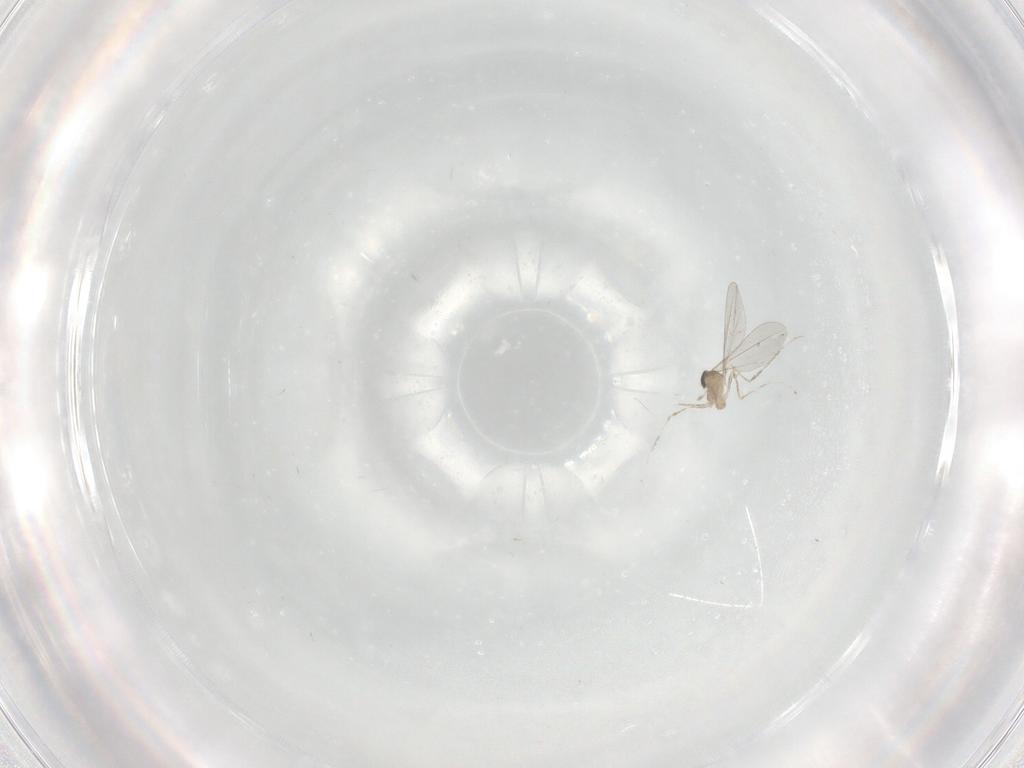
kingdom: Animalia
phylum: Arthropoda
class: Insecta
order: Diptera
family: Cecidomyiidae
